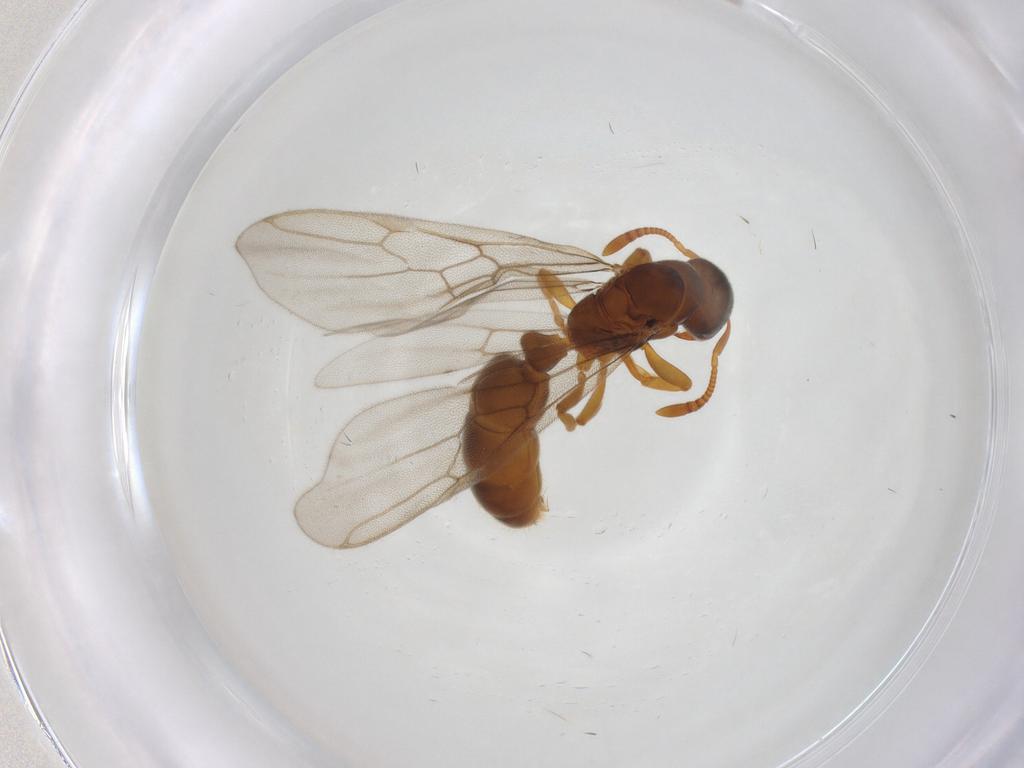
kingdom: Animalia
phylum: Arthropoda
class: Insecta
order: Hymenoptera
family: Formicidae
